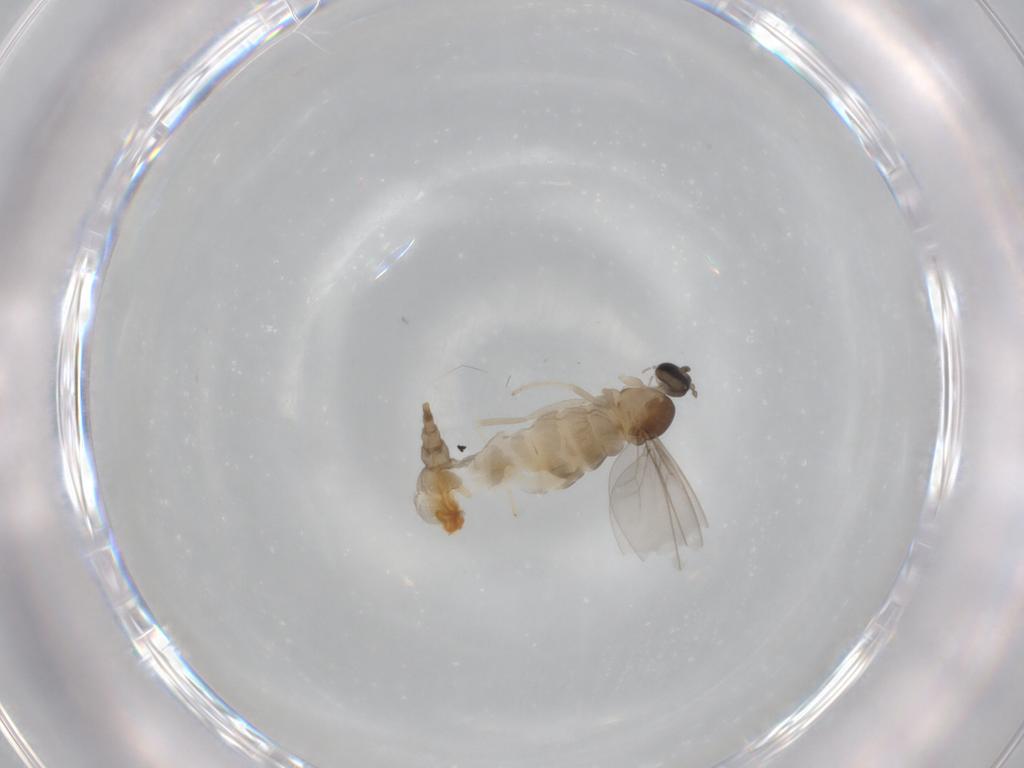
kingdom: Animalia
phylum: Arthropoda
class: Insecta
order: Diptera
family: Cecidomyiidae
